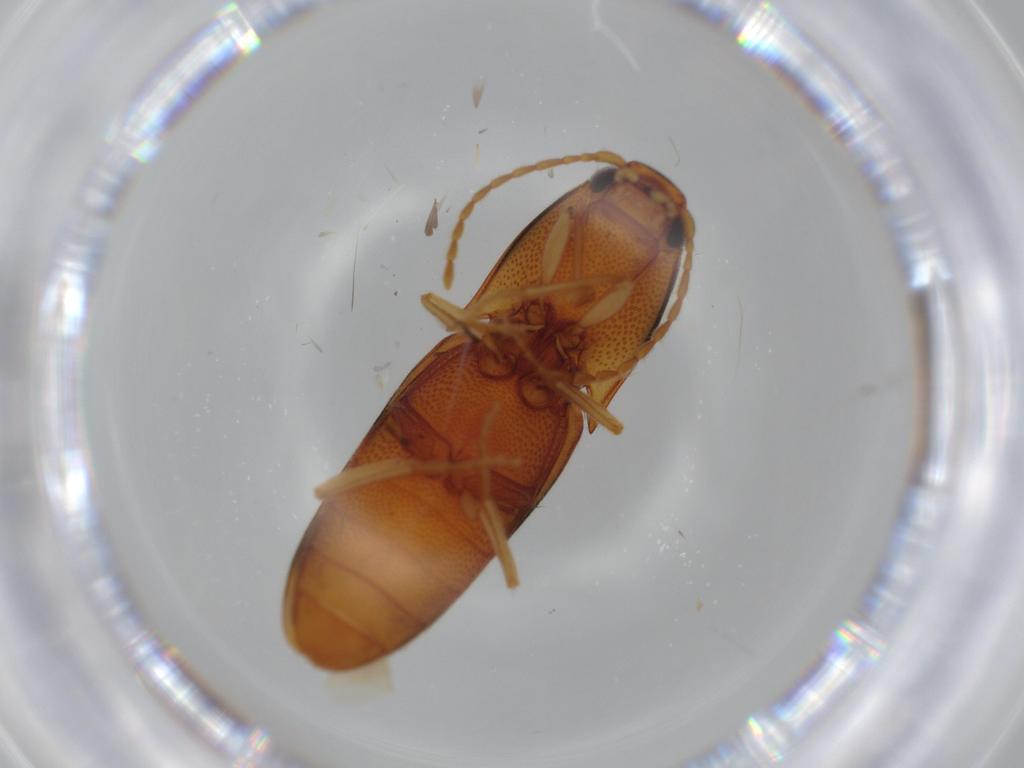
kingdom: Animalia
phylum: Arthropoda
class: Insecta
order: Coleoptera
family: Elateridae
